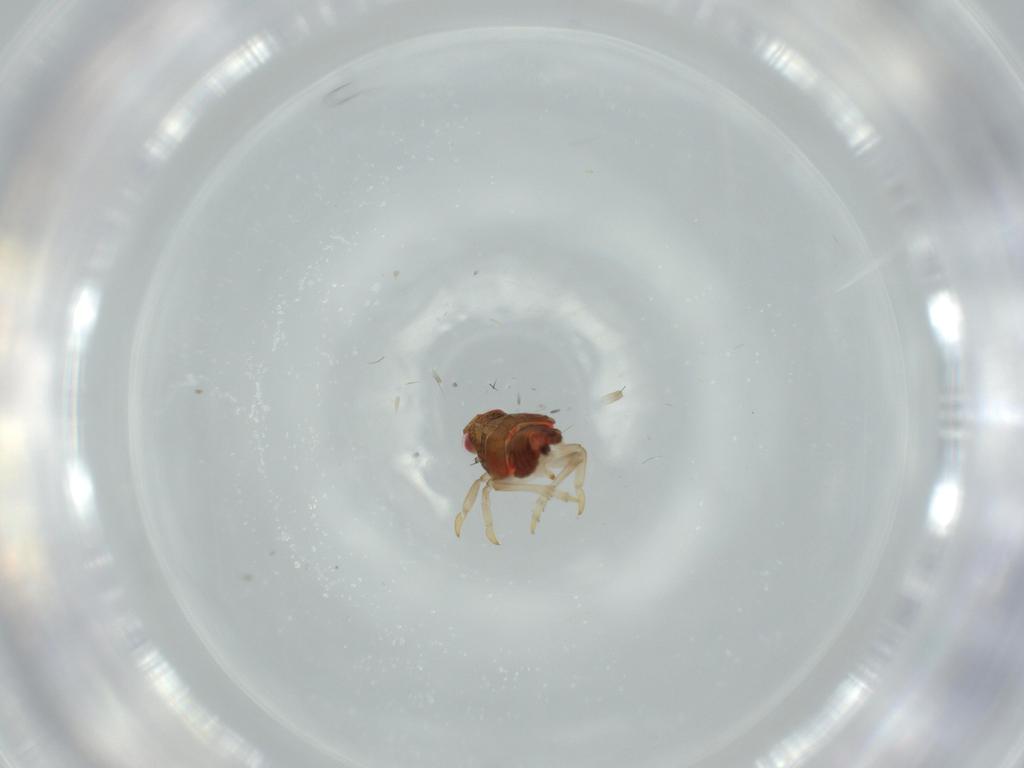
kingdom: Animalia
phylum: Arthropoda
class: Insecta
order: Hemiptera
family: Issidae
